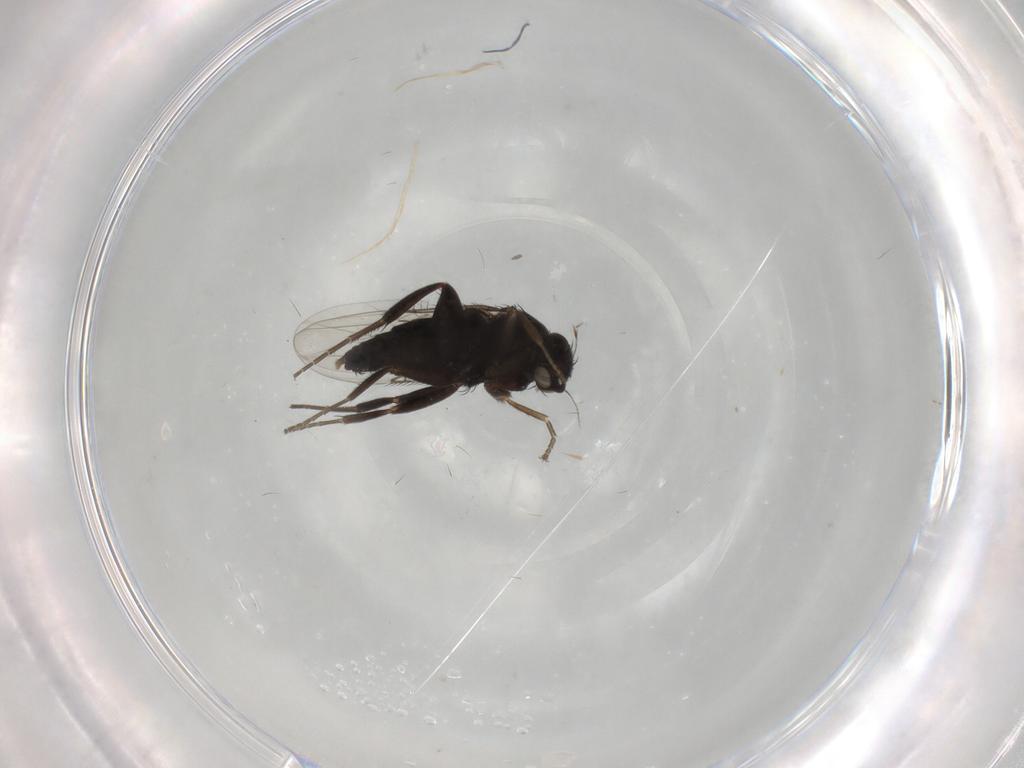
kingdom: Animalia
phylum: Arthropoda
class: Insecta
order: Diptera
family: Phoridae
